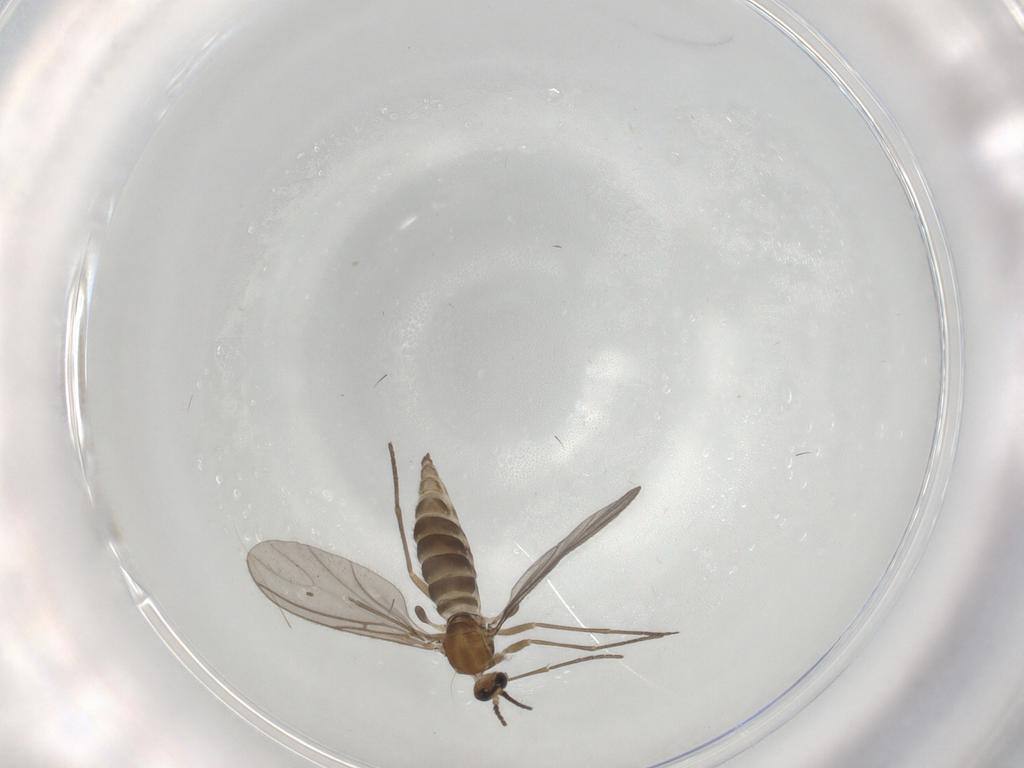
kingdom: Animalia
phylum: Arthropoda
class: Insecta
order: Diptera
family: Sciaridae
